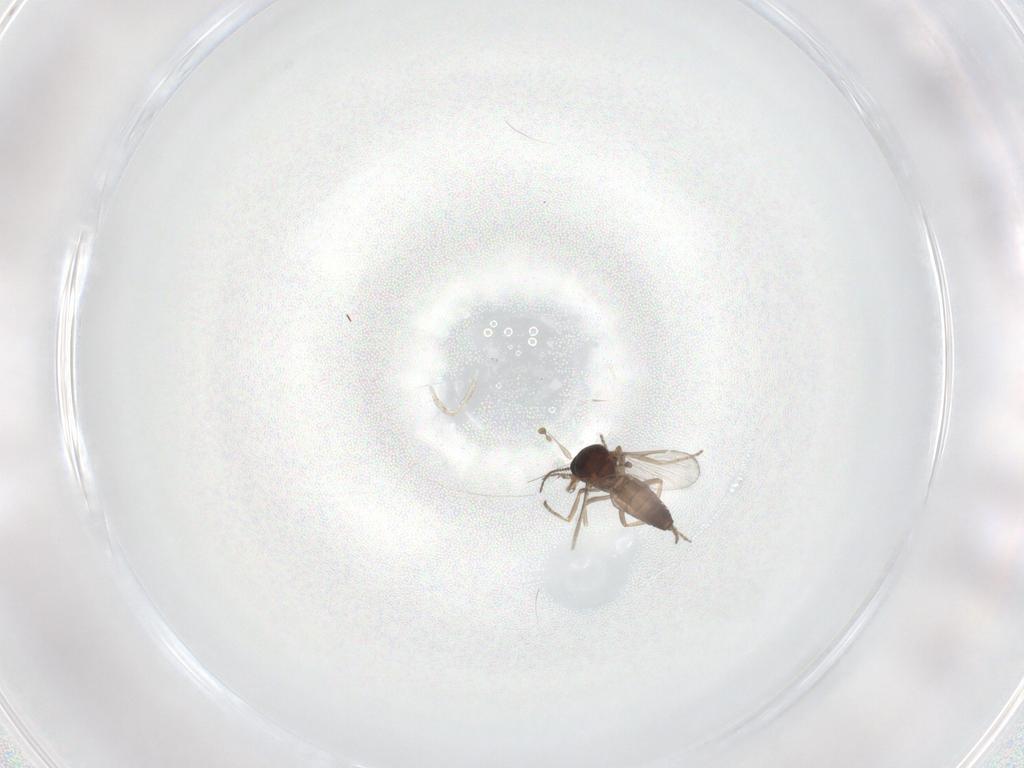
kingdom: Animalia
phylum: Arthropoda
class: Insecta
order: Diptera
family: Ceratopogonidae
